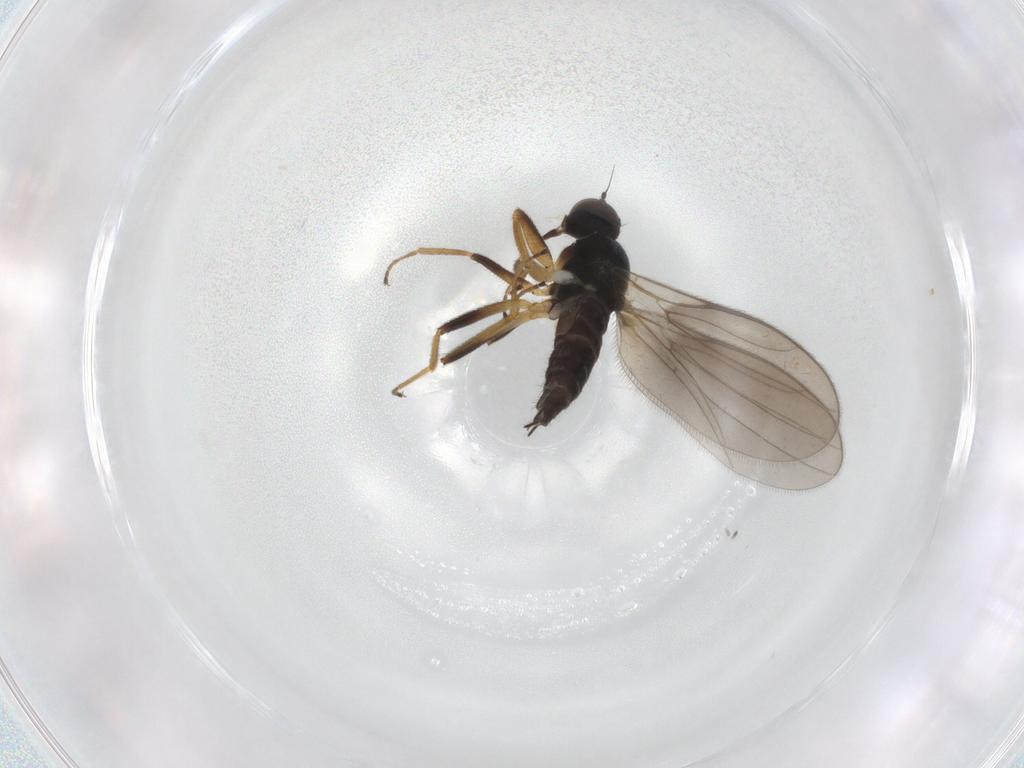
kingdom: Animalia
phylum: Arthropoda
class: Insecta
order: Diptera
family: Hybotidae
